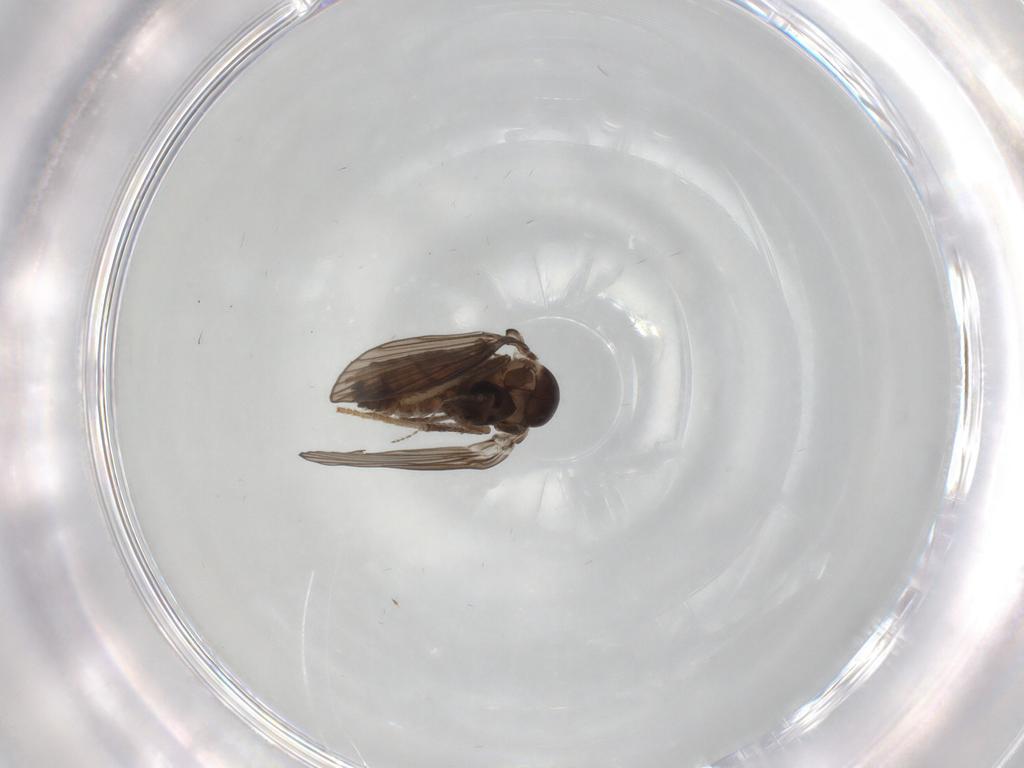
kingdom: Animalia
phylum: Arthropoda
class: Insecta
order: Diptera
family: Psychodidae
